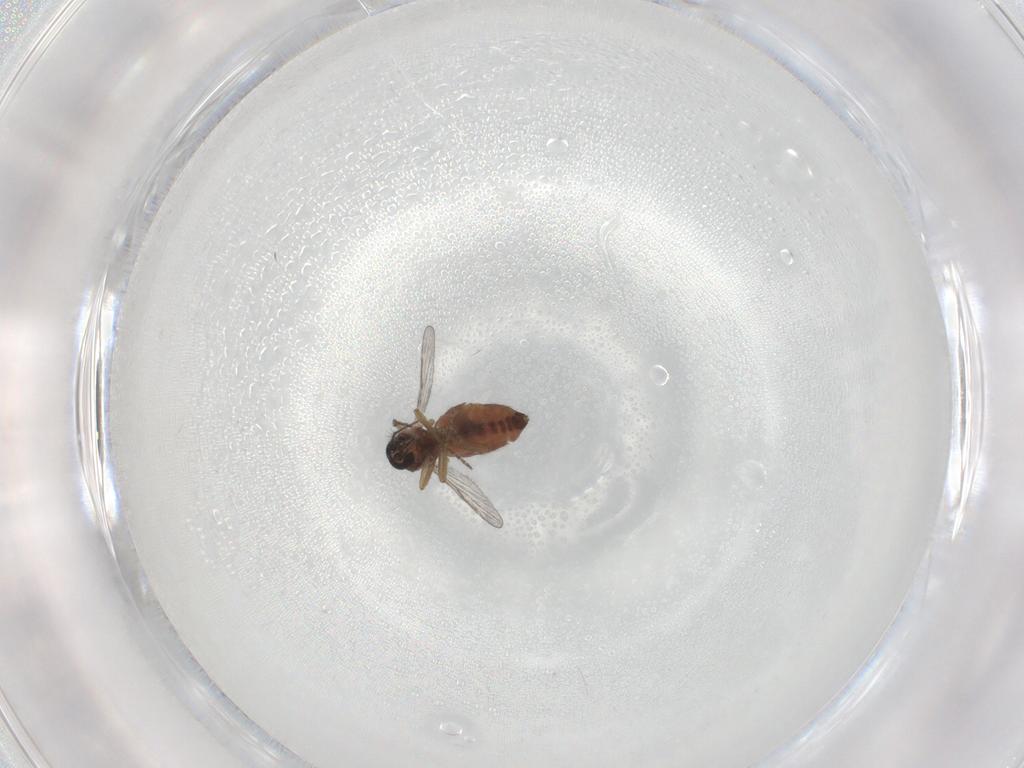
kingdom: Animalia
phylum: Arthropoda
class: Insecta
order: Diptera
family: Ceratopogonidae
